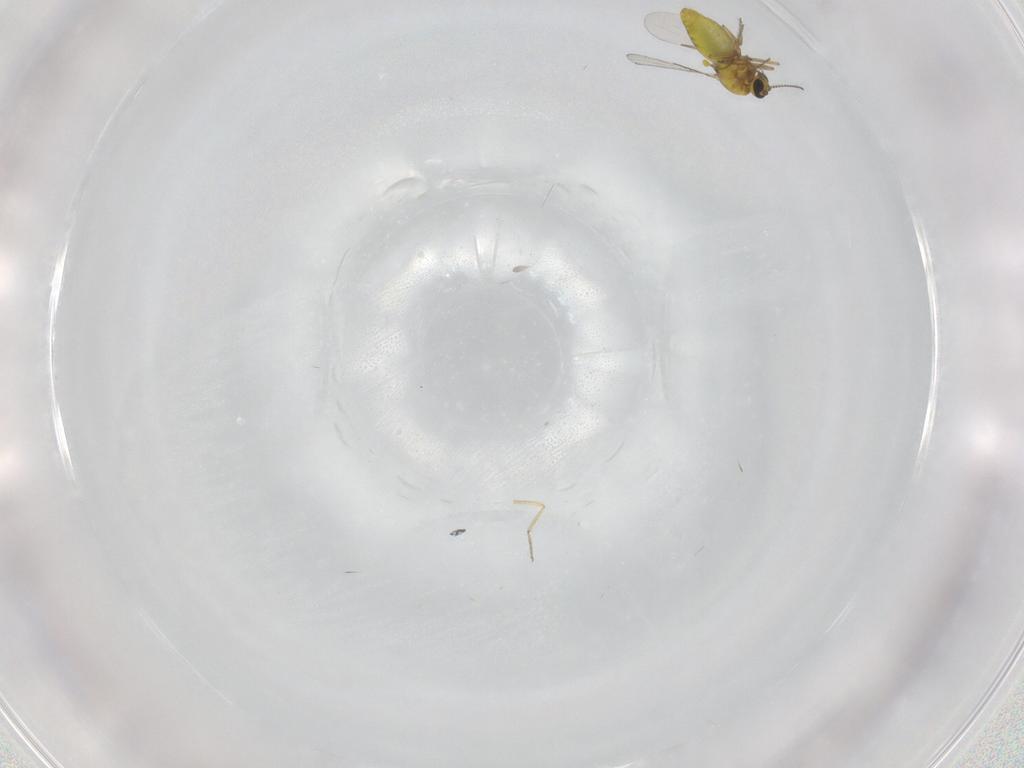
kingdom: Animalia
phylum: Arthropoda
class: Insecta
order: Diptera
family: Chironomidae
